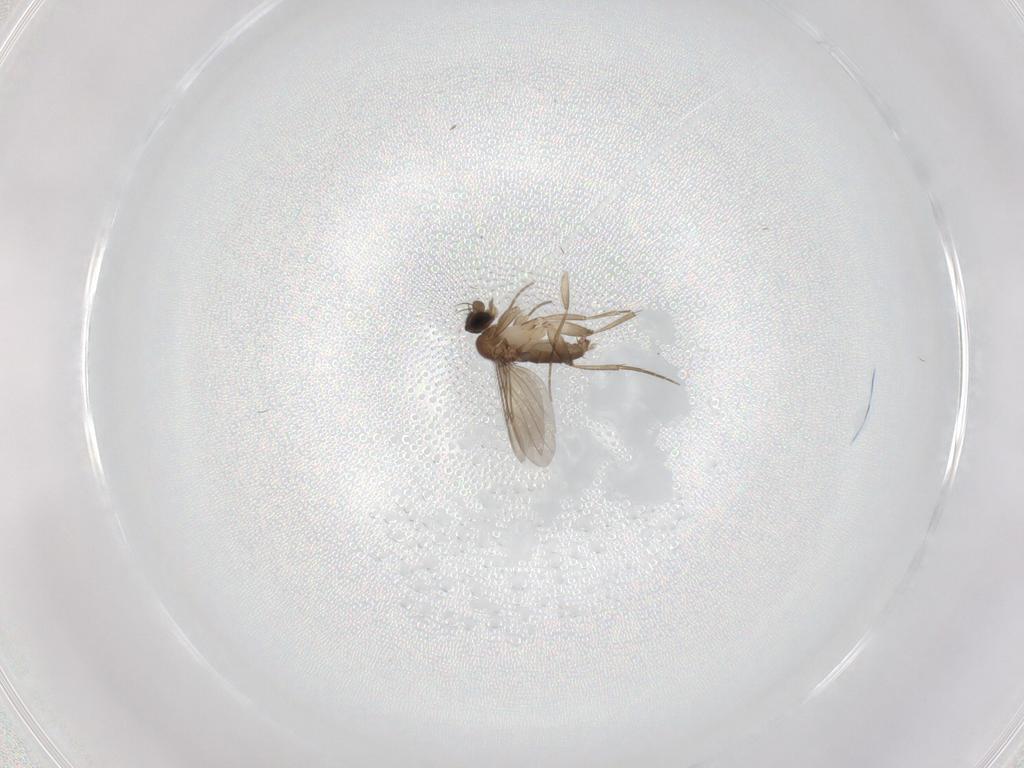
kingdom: Animalia
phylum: Arthropoda
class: Insecta
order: Diptera
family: Phoridae
